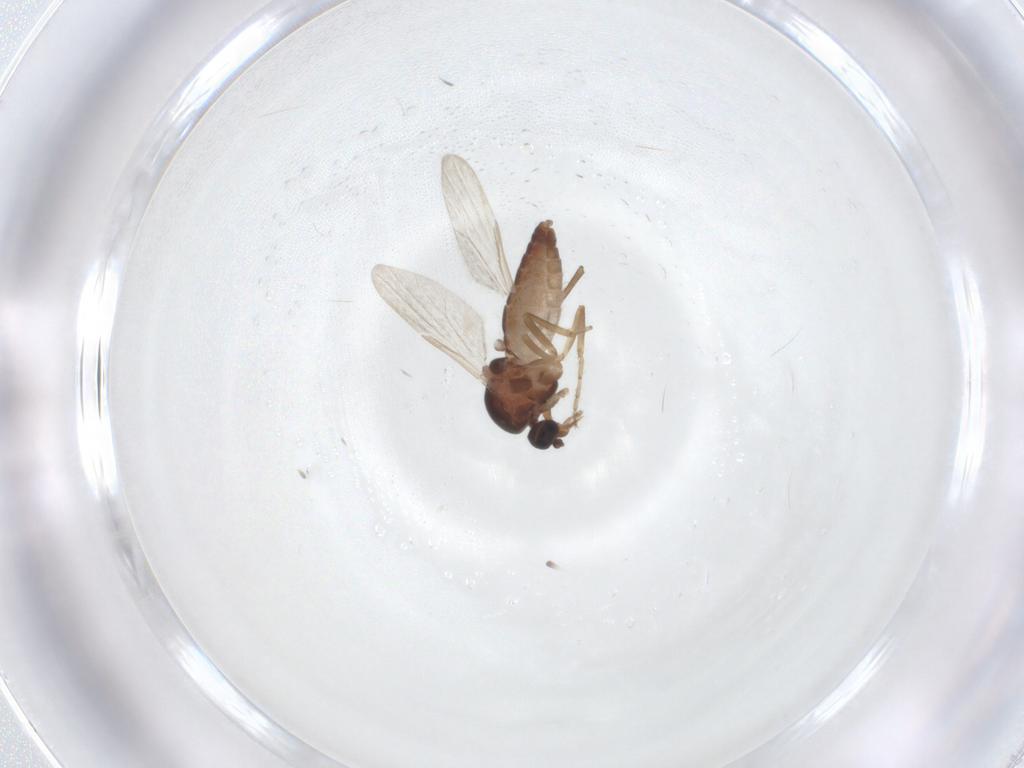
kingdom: Animalia
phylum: Arthropoda
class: Insecta
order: Diptera
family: Ceratopogonidae
